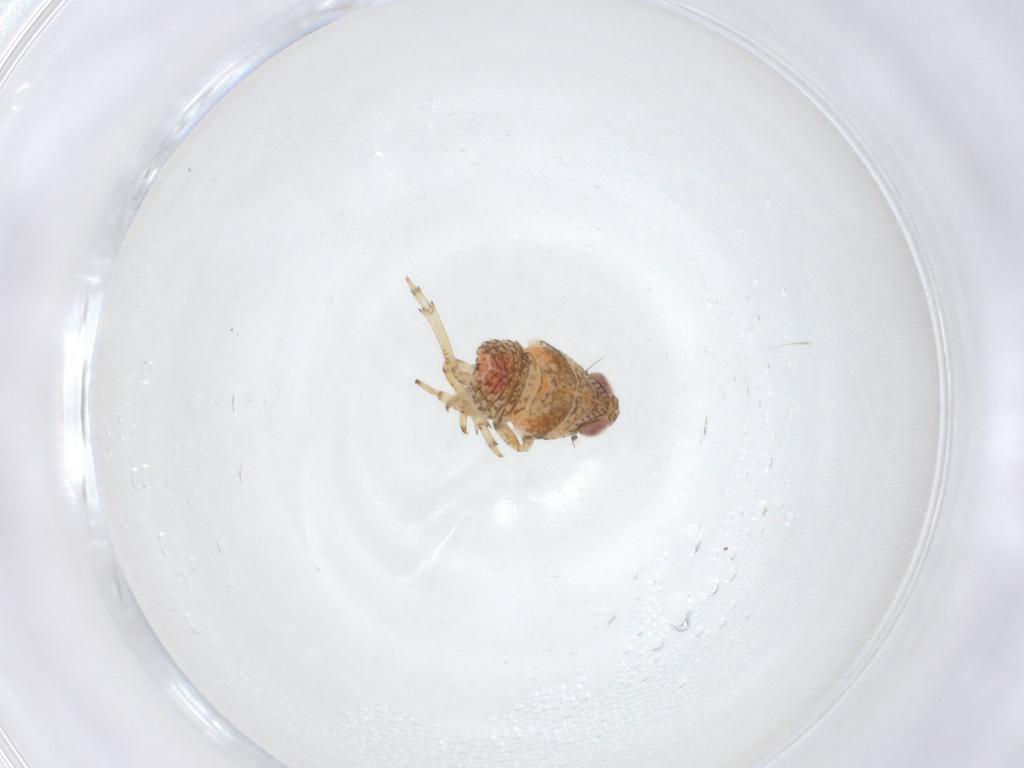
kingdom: Animalia
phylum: Arthropoda
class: Insecta
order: Hemiptera
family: Issidae
